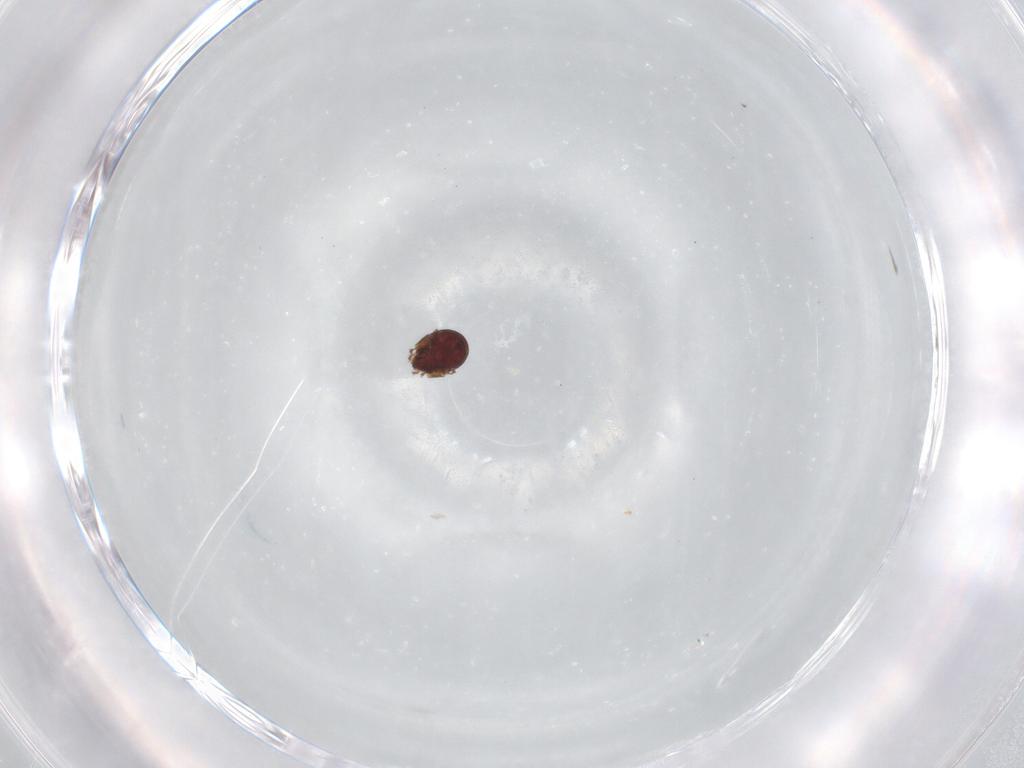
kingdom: Animalia
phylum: Arthropoda
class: Arachnida
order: Sarcoptiformes
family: Phenopelopidae
